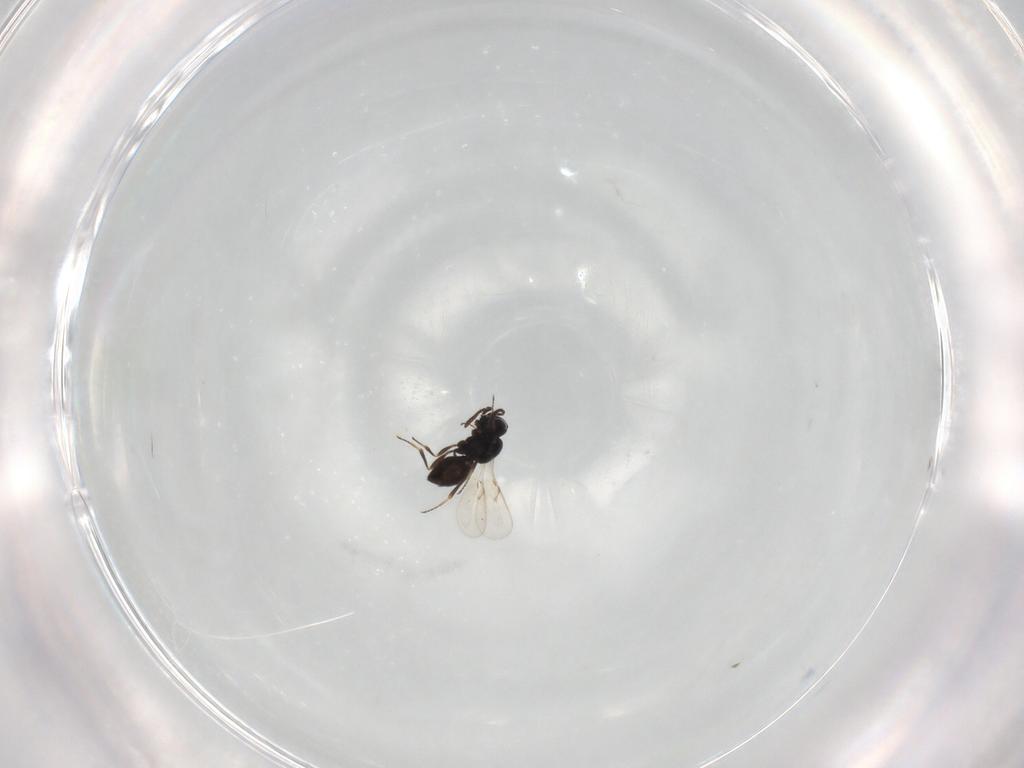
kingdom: Animalia
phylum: Arthropoda
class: Insecta
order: Hymenoptera
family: Scelionidae
